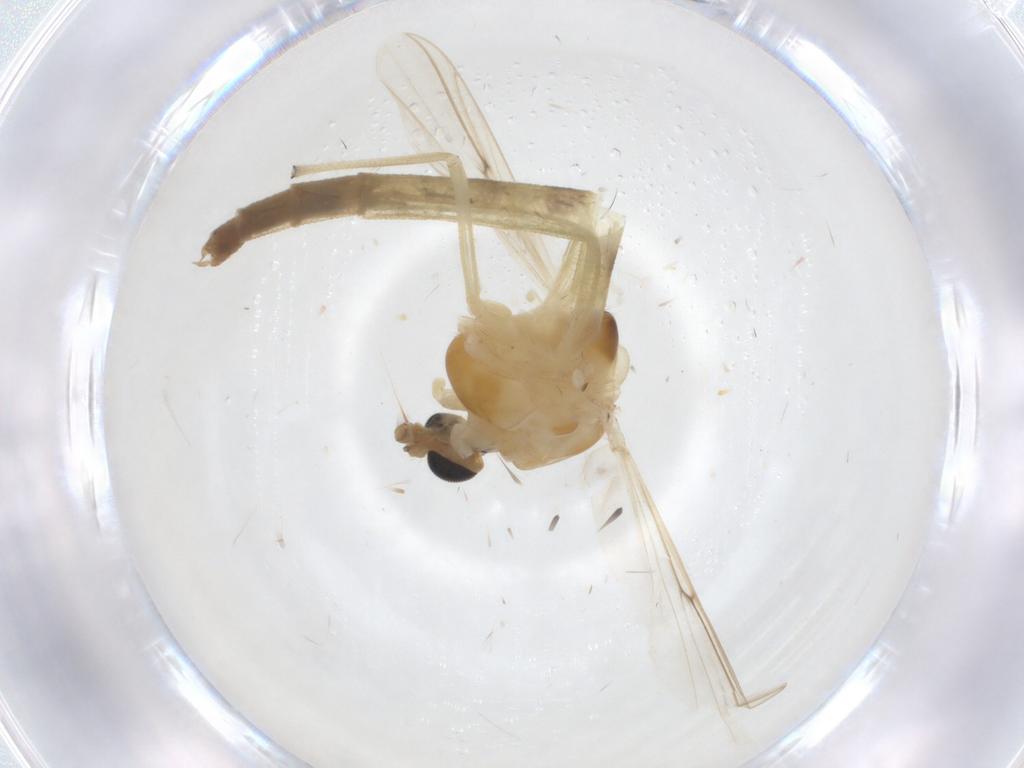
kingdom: Animalia
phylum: Arthropoda
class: Insecta
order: Diptera
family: Chironomidae
